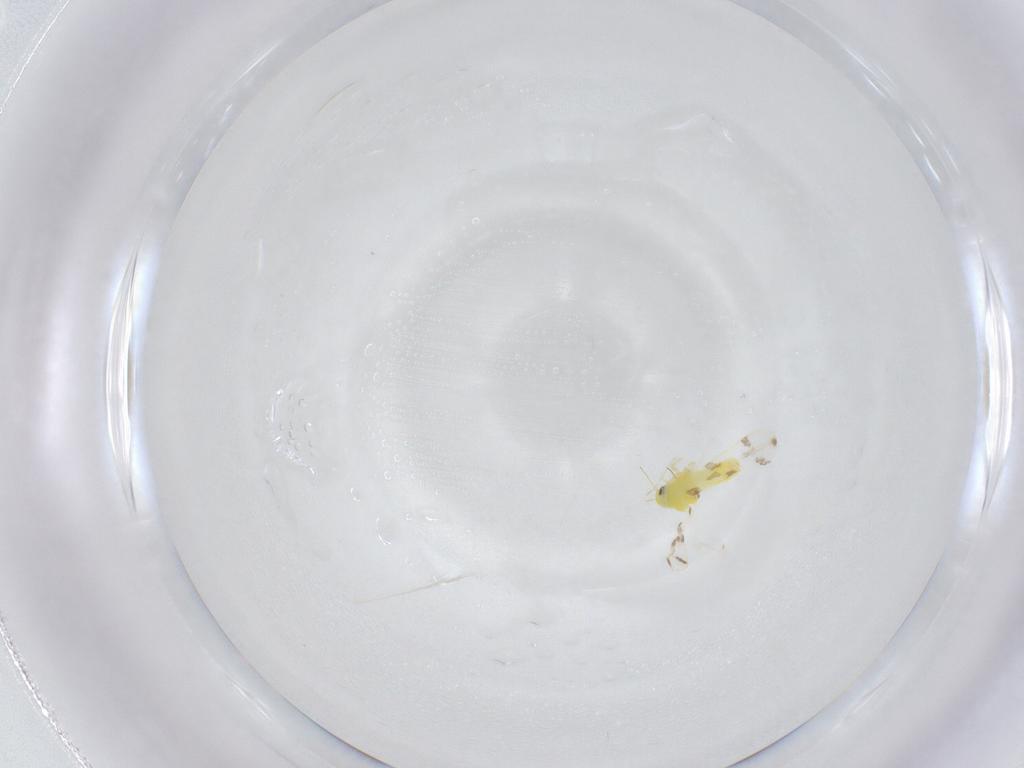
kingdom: Animalia
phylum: Arthropoda
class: Insecta
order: Hemiptera
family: Aleyrodidae
